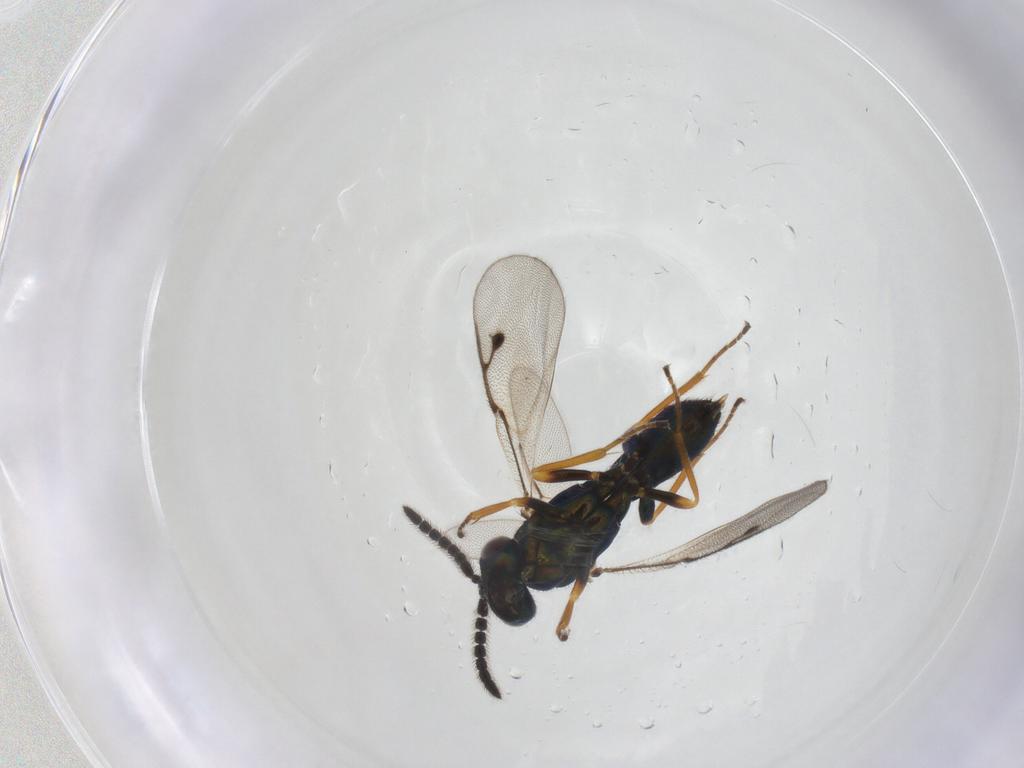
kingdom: Animalia
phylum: Arthropoda
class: Insecta
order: Hymenoptera
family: Pirenidae
